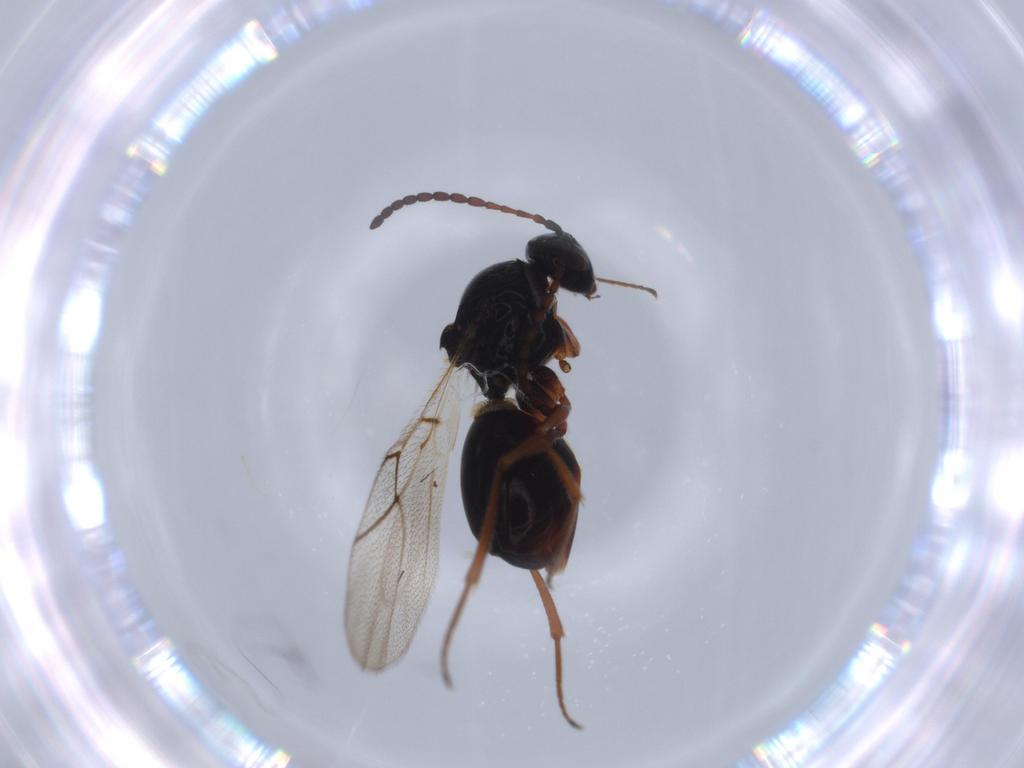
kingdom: Animalia
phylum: Arthropoda
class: Insecta
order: Hymenoptera
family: Figitidae
